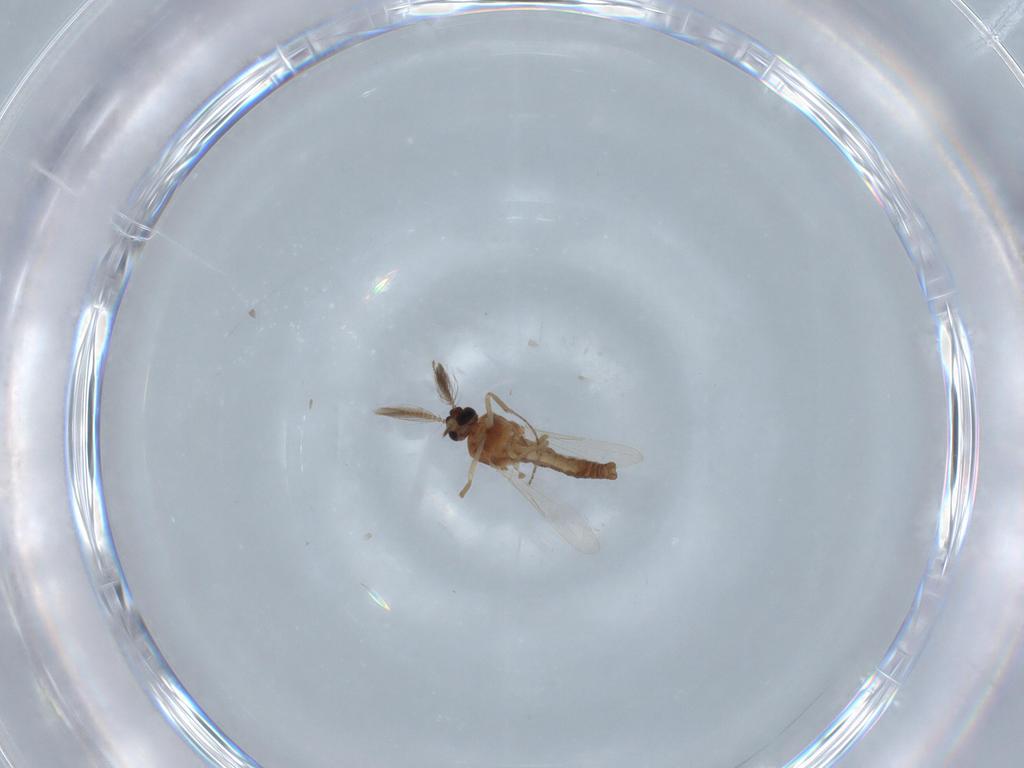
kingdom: Animalia
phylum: Arthropoda
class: Insecta
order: Diptera
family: Ceratopogonidae
